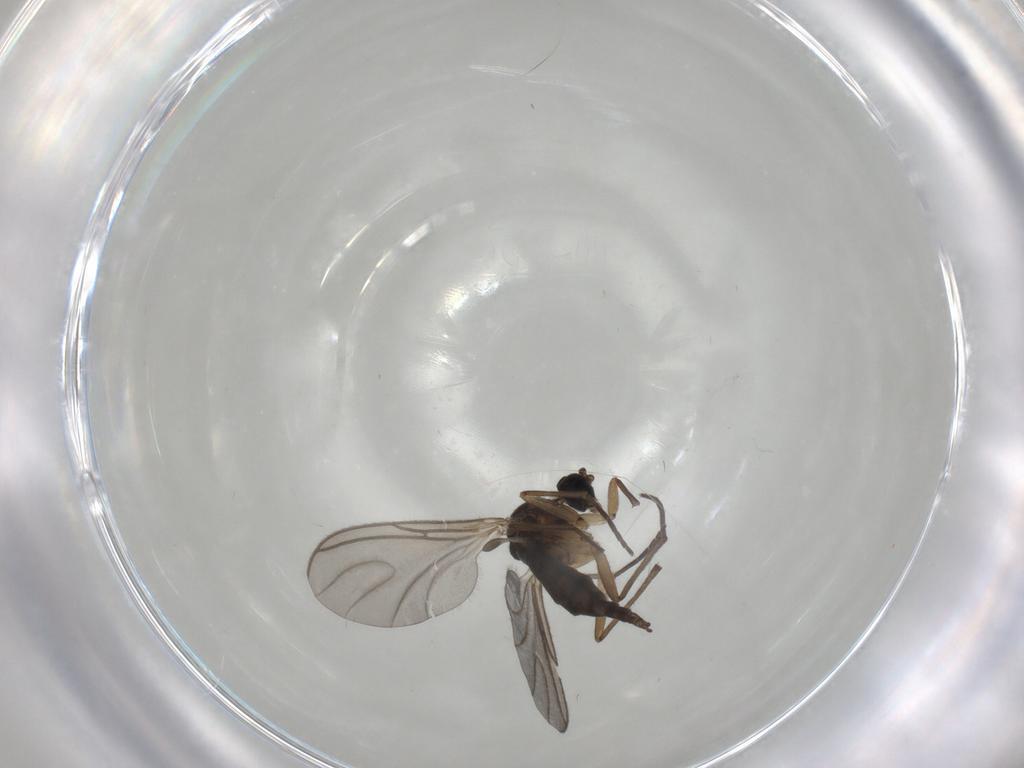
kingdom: Animalia
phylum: Arthropoda
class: Insecta
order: Diptera
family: Sciaridae
